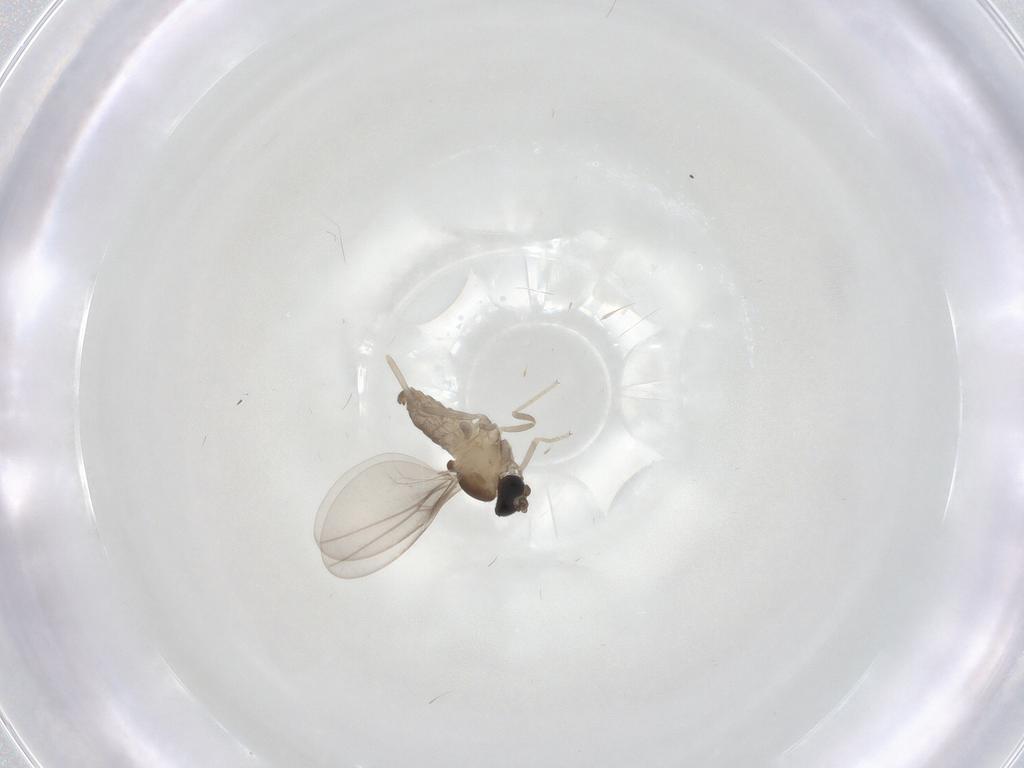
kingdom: Animalia
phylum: Arthropoda
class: Insecta
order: Diptera
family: Cecidomyiidae
